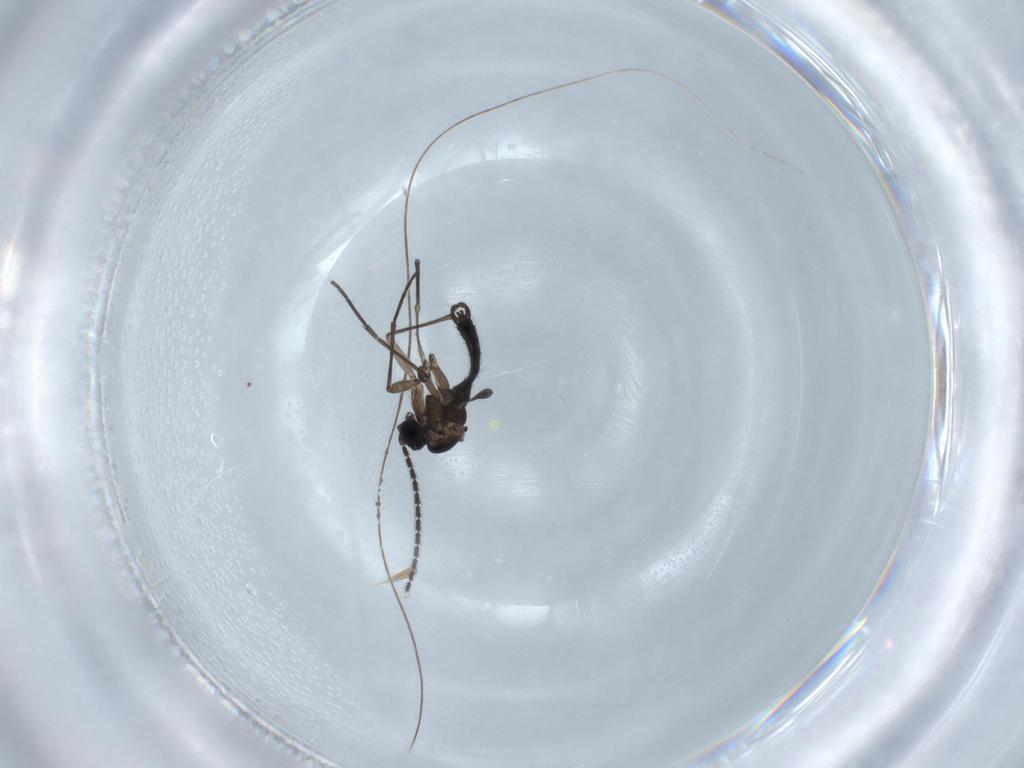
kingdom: Animalia
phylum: Arthropoda
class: Insecta
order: Diptera
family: Sciaridae
